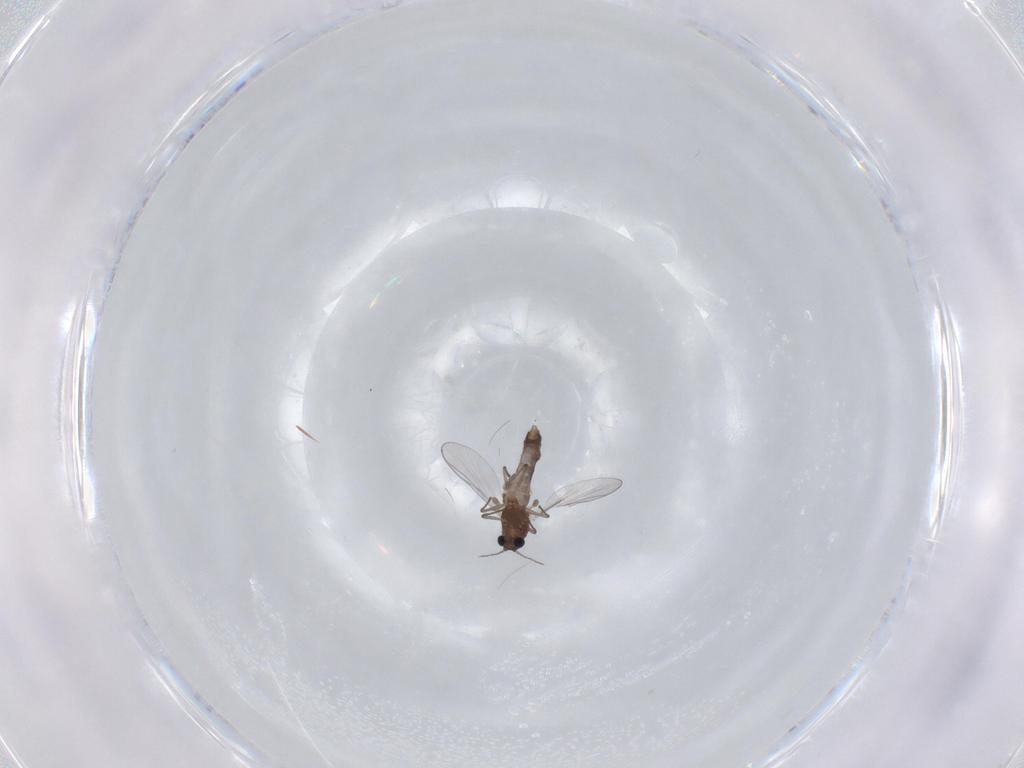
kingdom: Animalia
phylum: Arthropoda
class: Insecta
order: Diptera
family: Chironomidae
